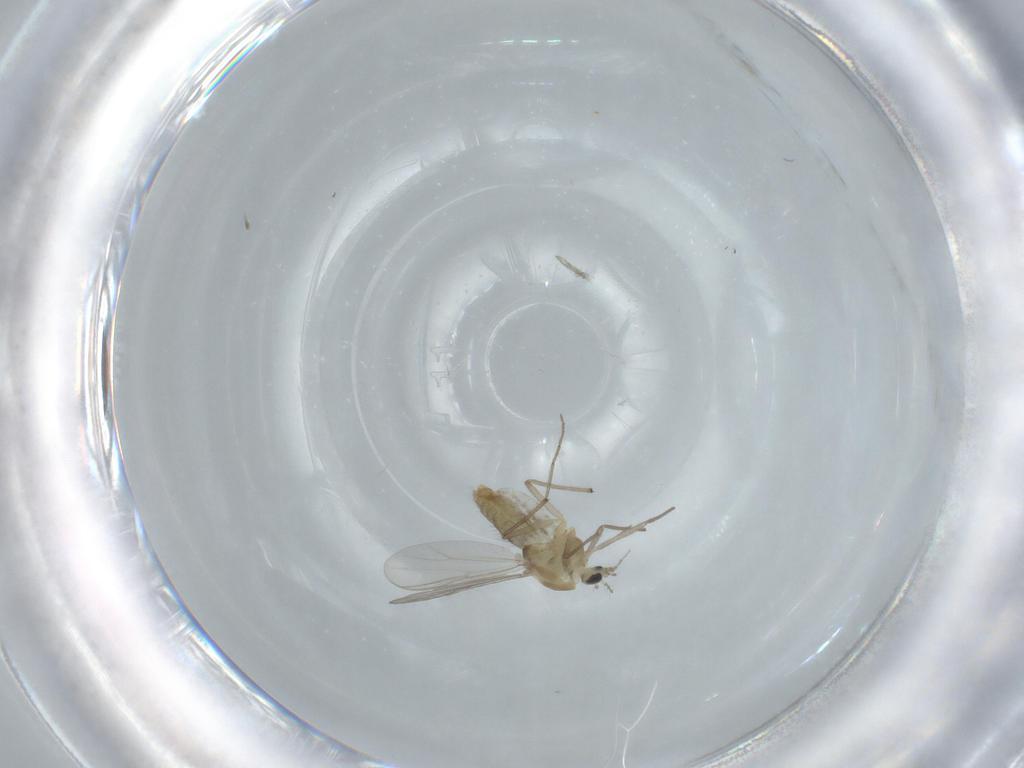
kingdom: Animalia
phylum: Arthropoda
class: Insecta
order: Diptera
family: Chironomidae
